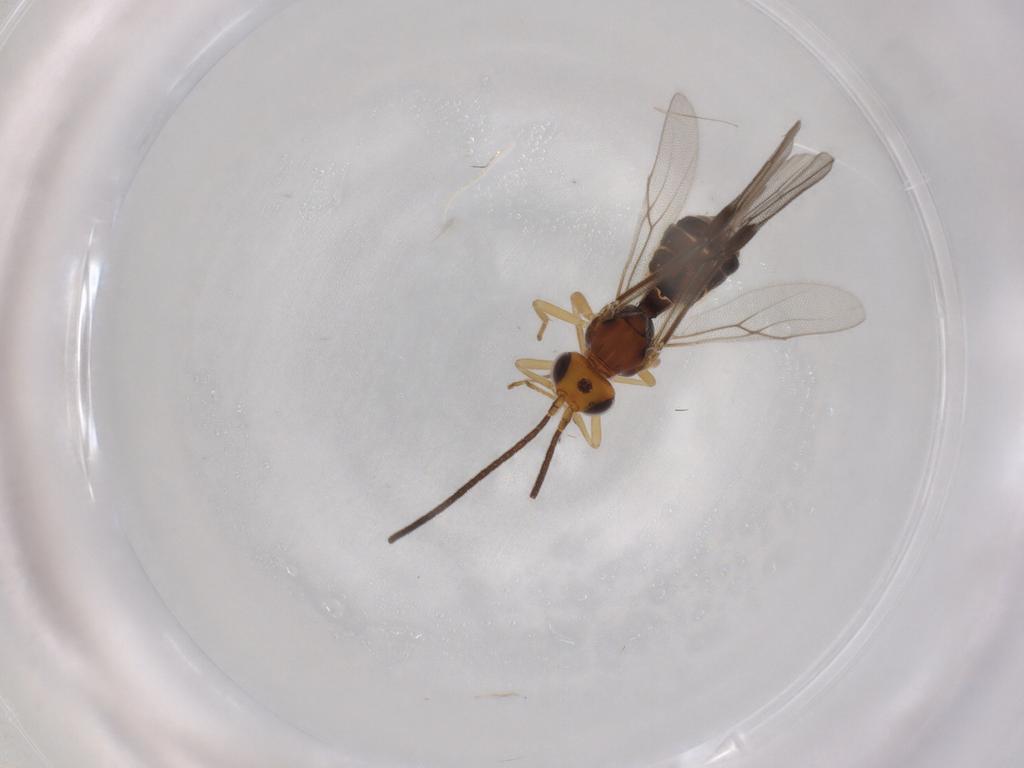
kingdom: Animalia
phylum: Arthropoda
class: Insecta
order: Hymenoptera
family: Braconidae
